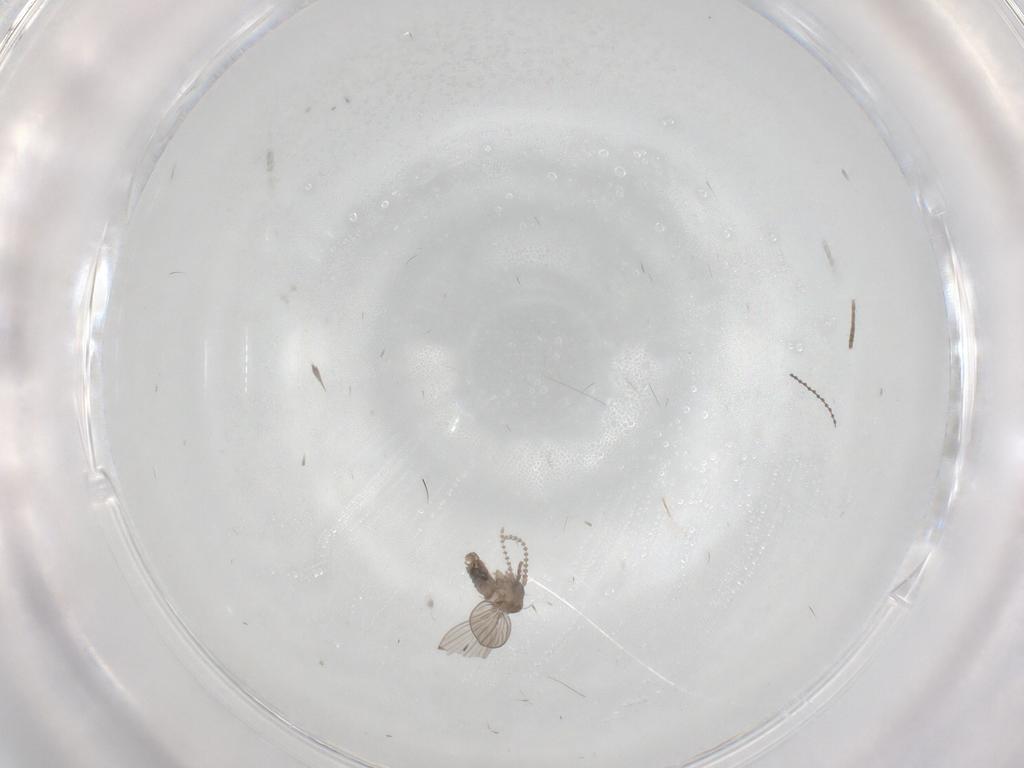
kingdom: Animalia
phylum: Arthropoda
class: Insecta
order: Diptera
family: Psychodidae
